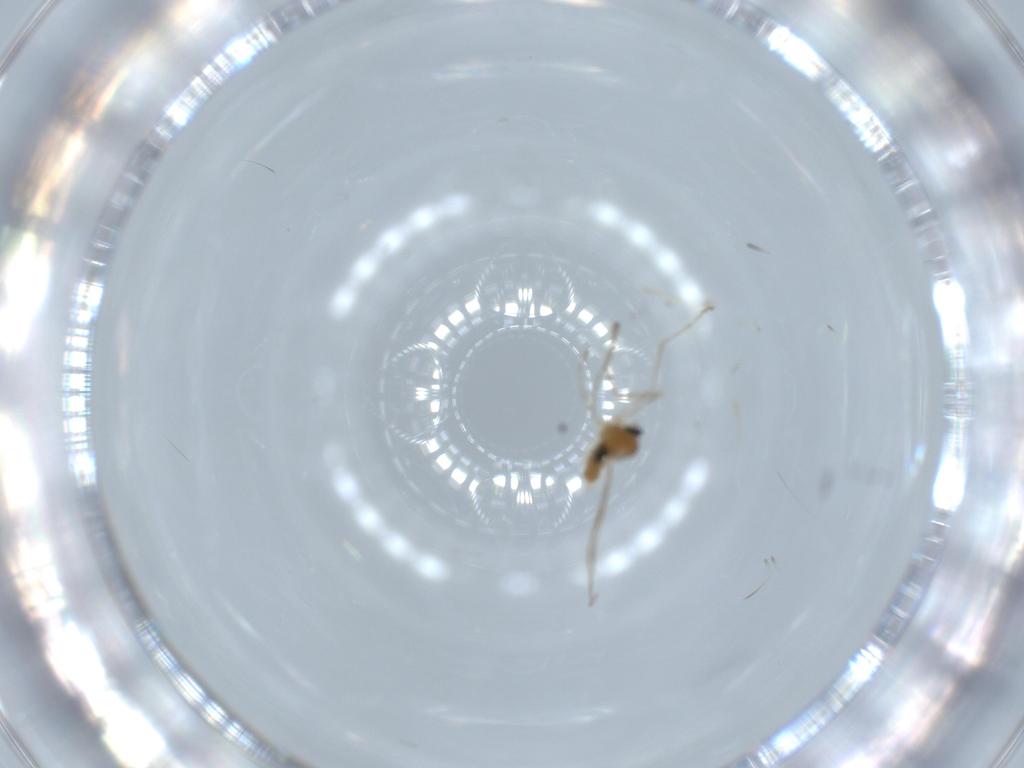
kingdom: Animalia
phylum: Arthropoda
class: Insecta
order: Diptera
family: Cecidomyiidae
